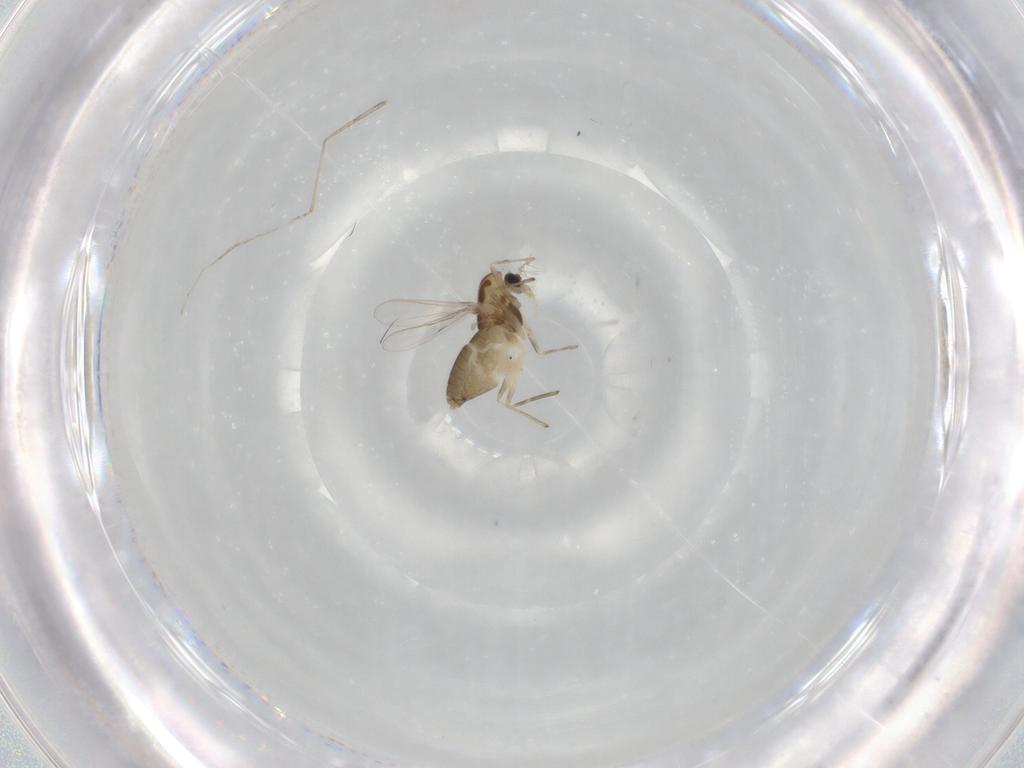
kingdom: Animalia
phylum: Arthropoda
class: Insecta
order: Diptera
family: Chironomidae
